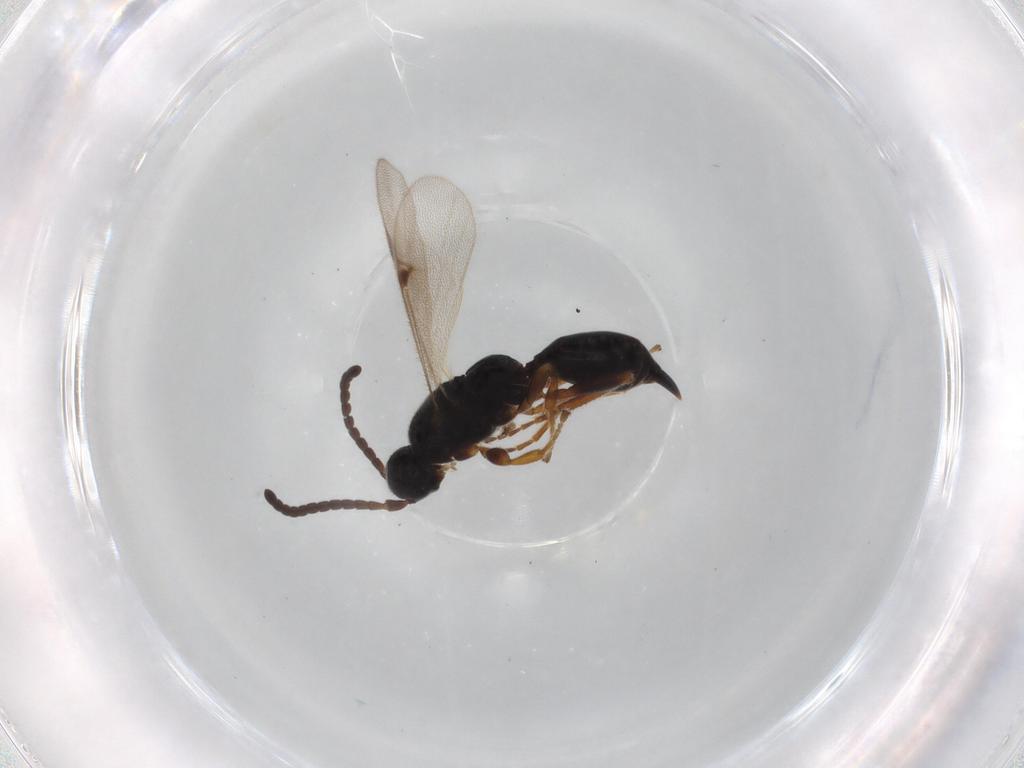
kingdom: Animalia
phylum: Arthropoda
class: Insecta
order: Hymenoptera
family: Proctotrupidae
